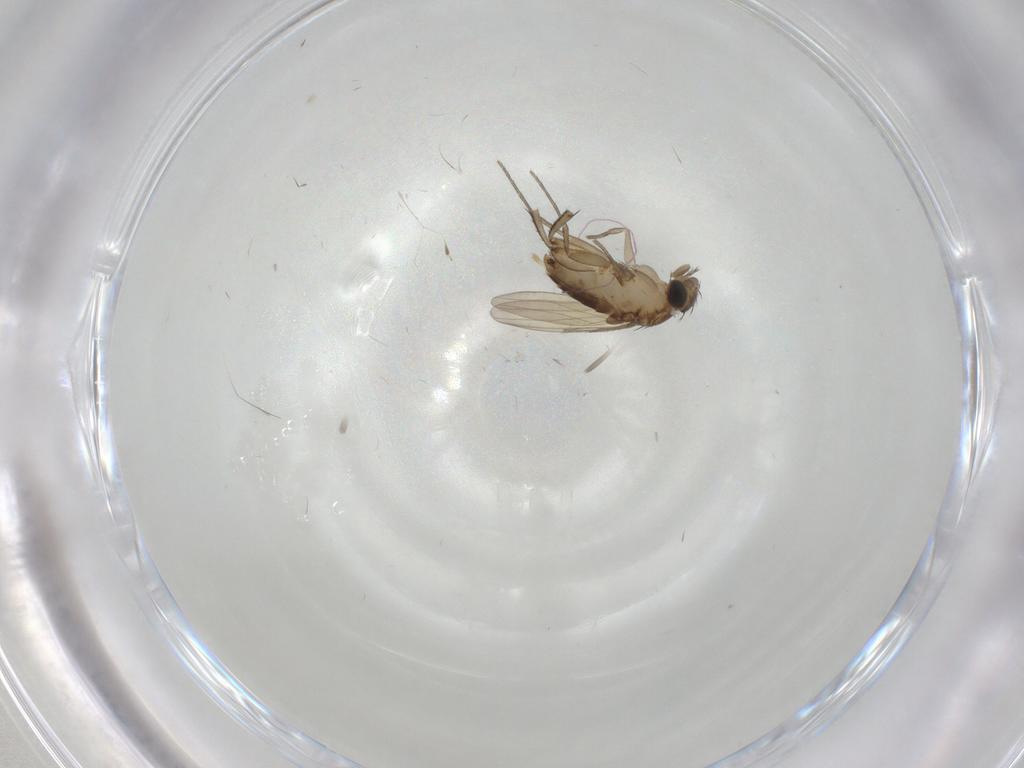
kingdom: Animalia
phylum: Arthropoda
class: Insecta
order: Diptera
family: Phoridae
